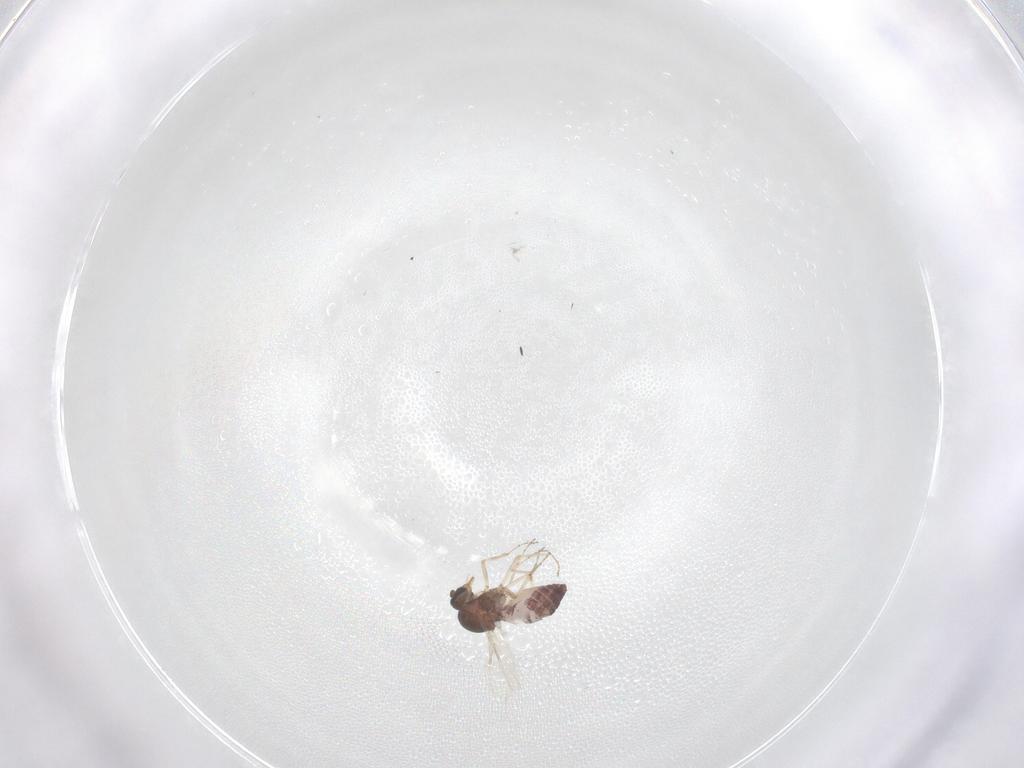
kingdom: Animalia
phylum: Arthropoda
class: Insecta
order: Diptera
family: Ceratopogonidae
